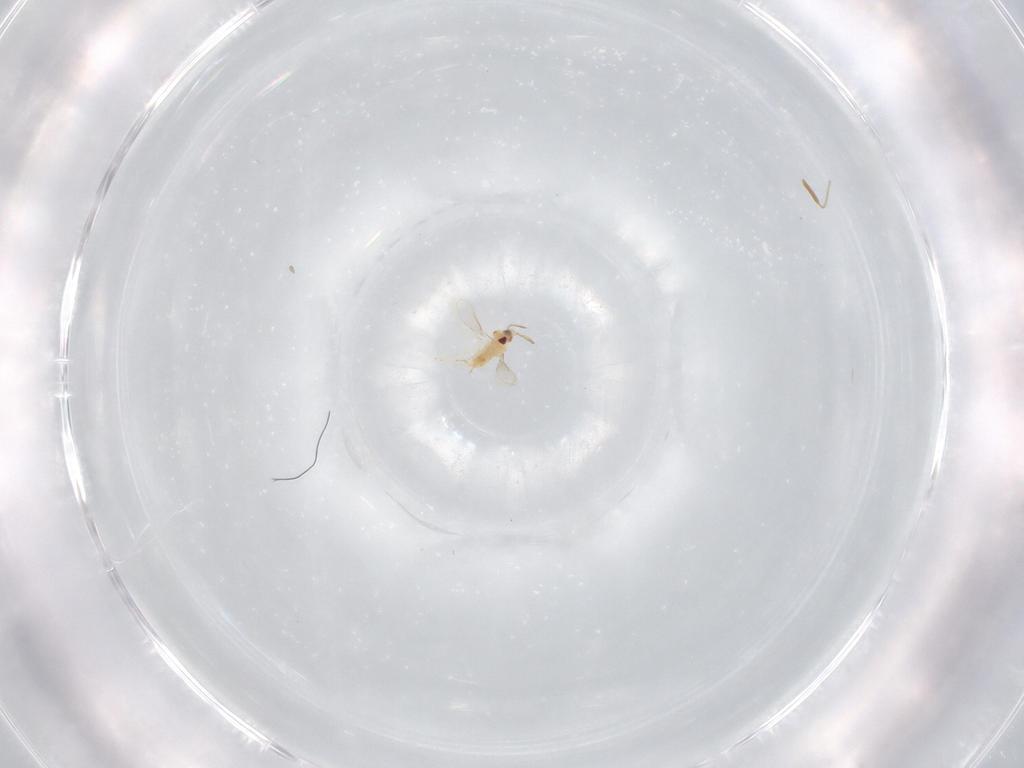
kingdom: Animalia
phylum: Arthropoda
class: Insecta
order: Hymenoptera
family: Aphelinidae
